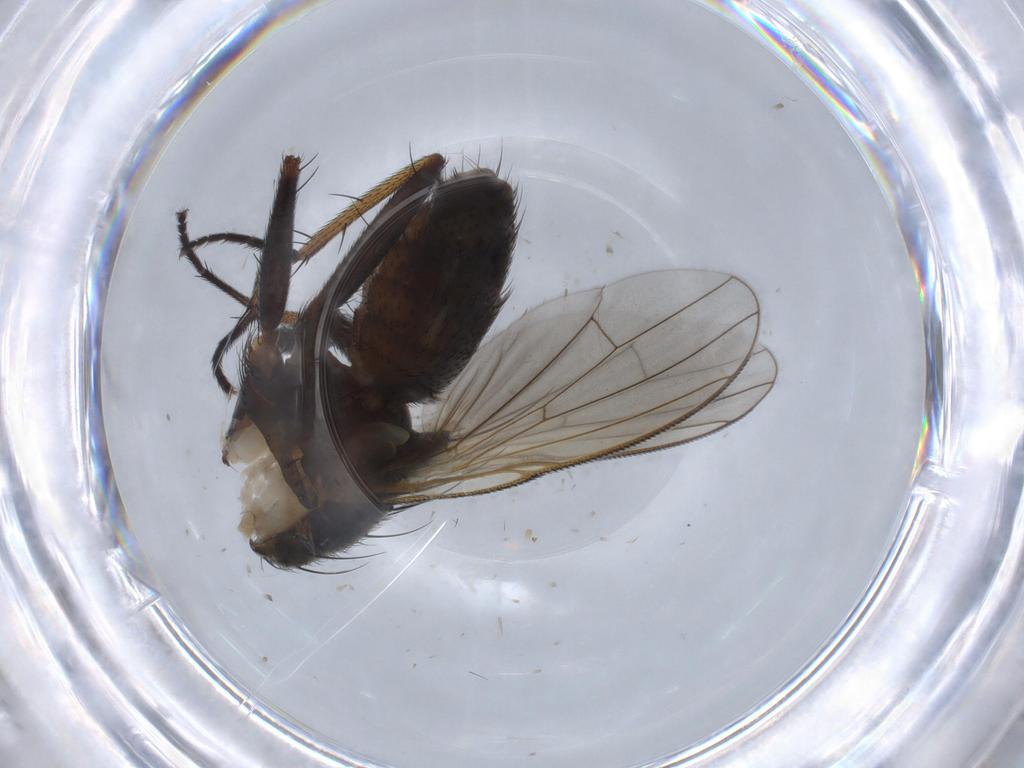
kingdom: Animalia
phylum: Arthropoda
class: Insecta
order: Diptera
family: Muscidae
